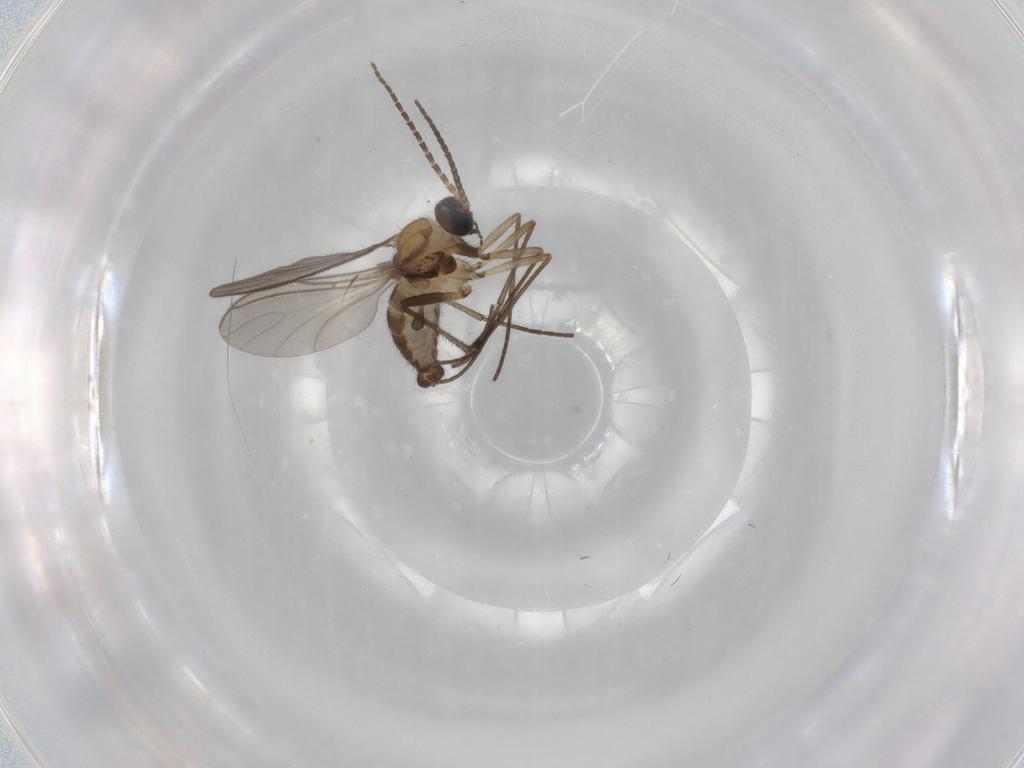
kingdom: Animalia
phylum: Arthropoda
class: Insecta
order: Diptera
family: Sciaridae
